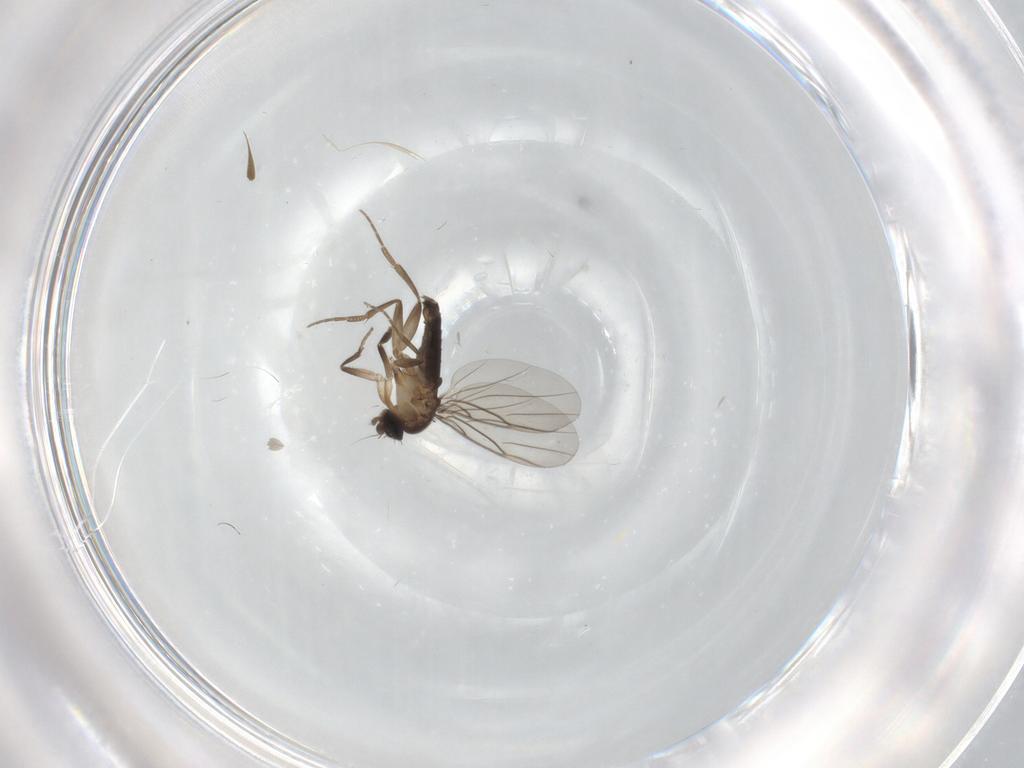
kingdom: Animalia
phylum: Arthropoda
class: Insecta
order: Diptera
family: Phoridae
